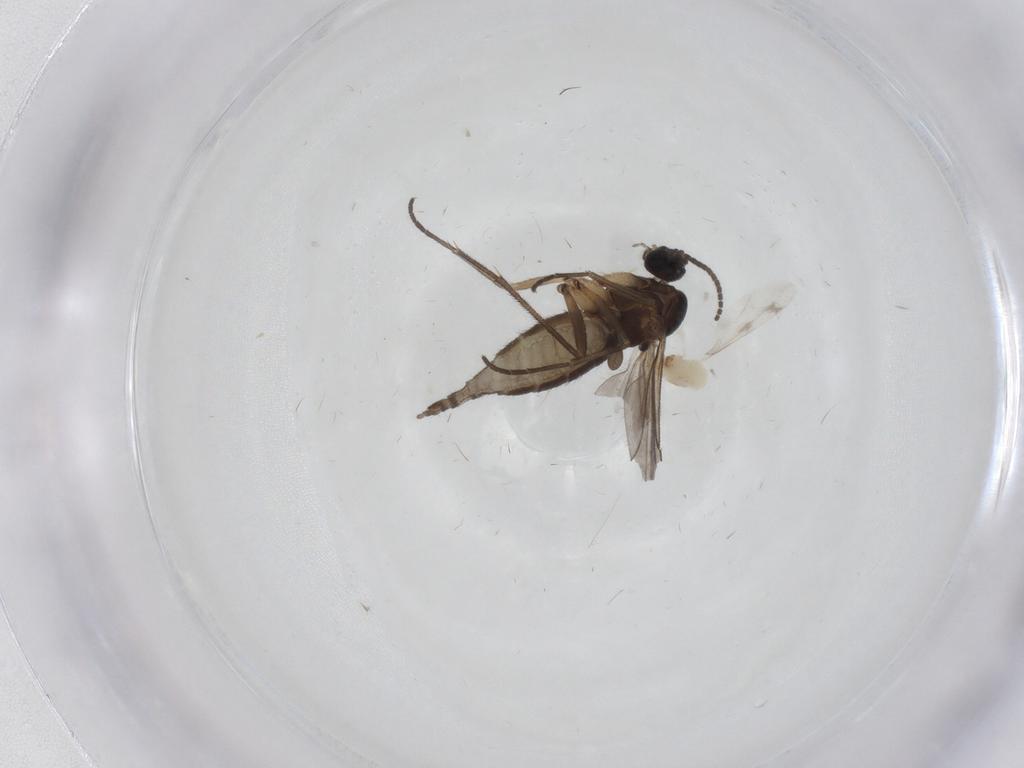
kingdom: Animalia
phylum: Arthropoda
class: Insecta
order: Diptera
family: Sciaridae
